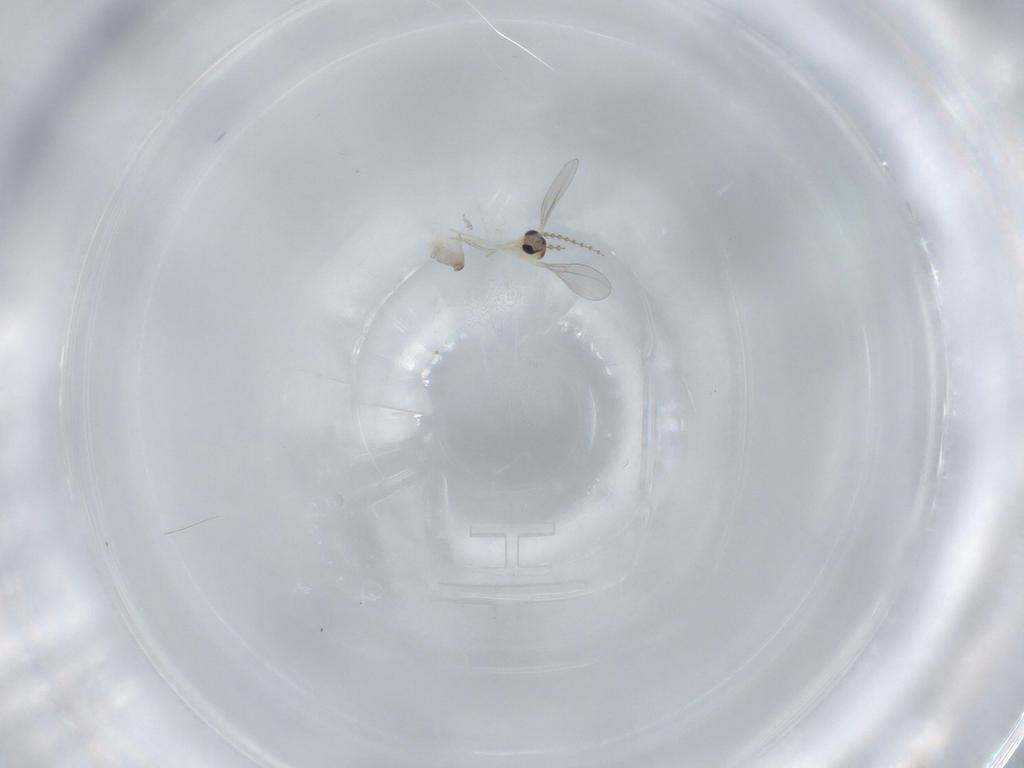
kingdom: Animalia
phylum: Arthropoda
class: Insecta
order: Diptera
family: Cecidomyiidae
